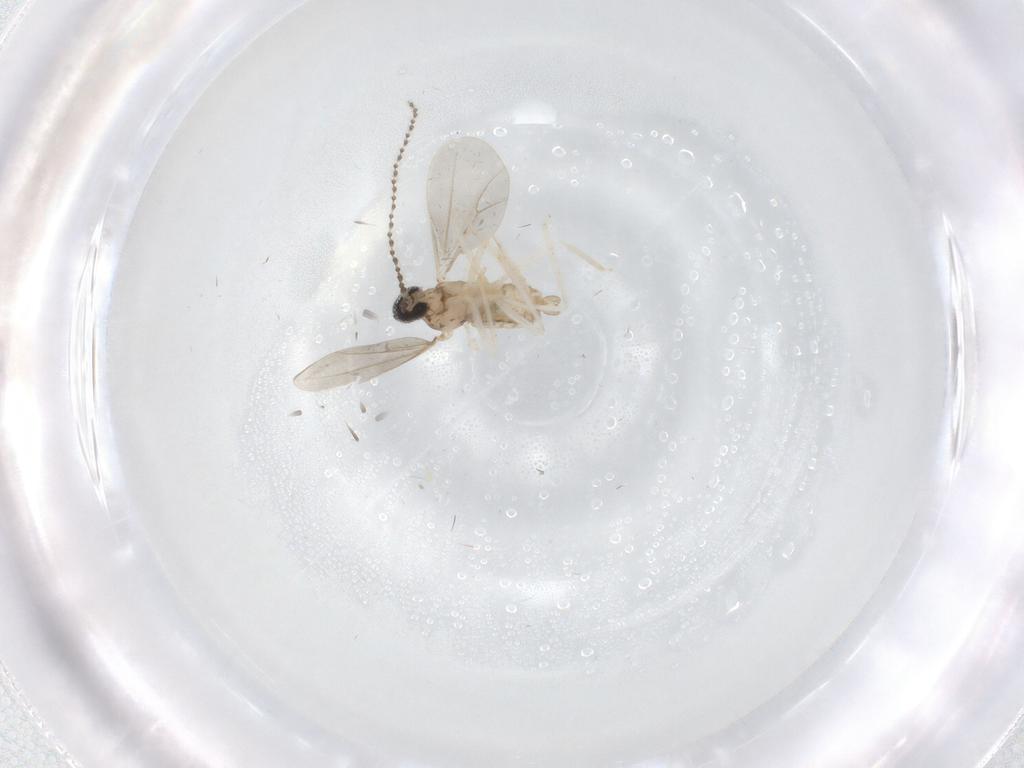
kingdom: Animalia
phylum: Arthropoda
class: Insecta
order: Diptera
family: Cecidomyiidae
